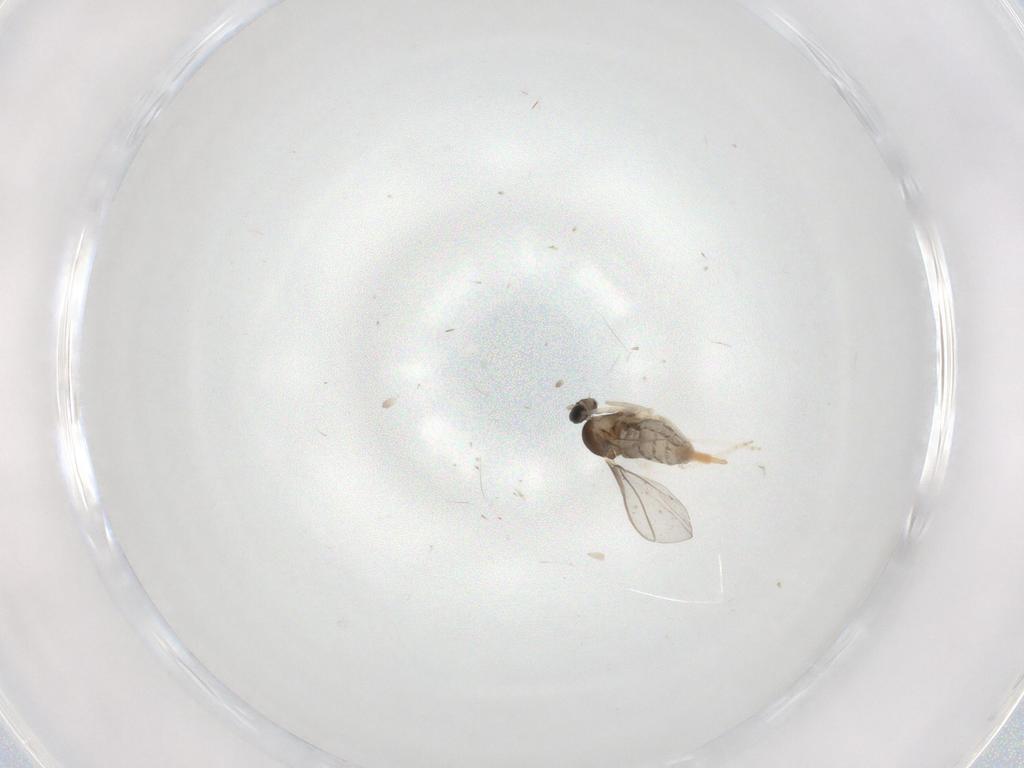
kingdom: Animalia
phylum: Arthropoda
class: Insecta
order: Diptera
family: Cecidomyiidae
